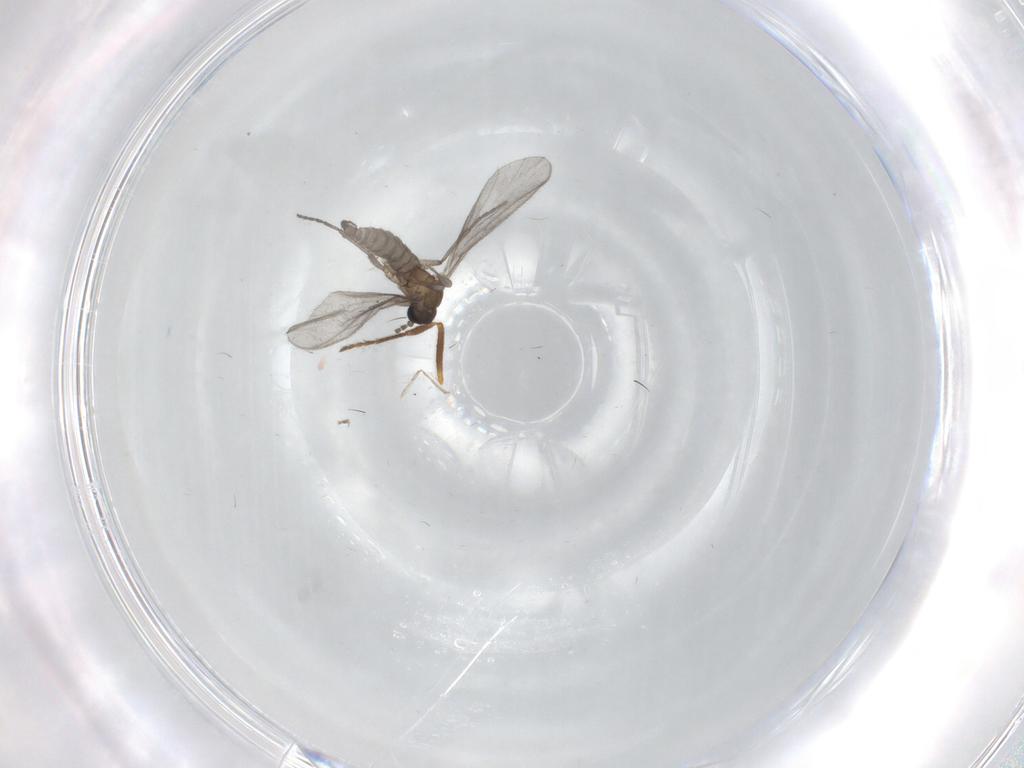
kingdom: Animalia
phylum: Arthropoda
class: Insecta
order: Diptera
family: Sciaridae
